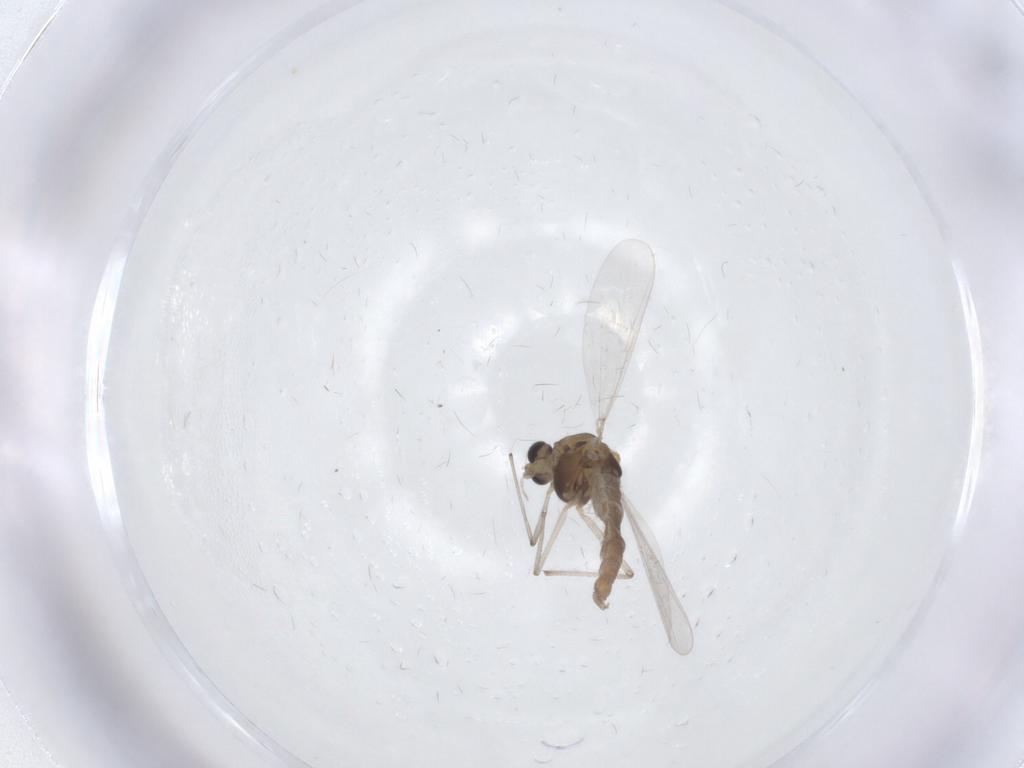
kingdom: Animalia
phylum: Arthropoda
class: Insecta
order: Diptera
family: Chironomidae
